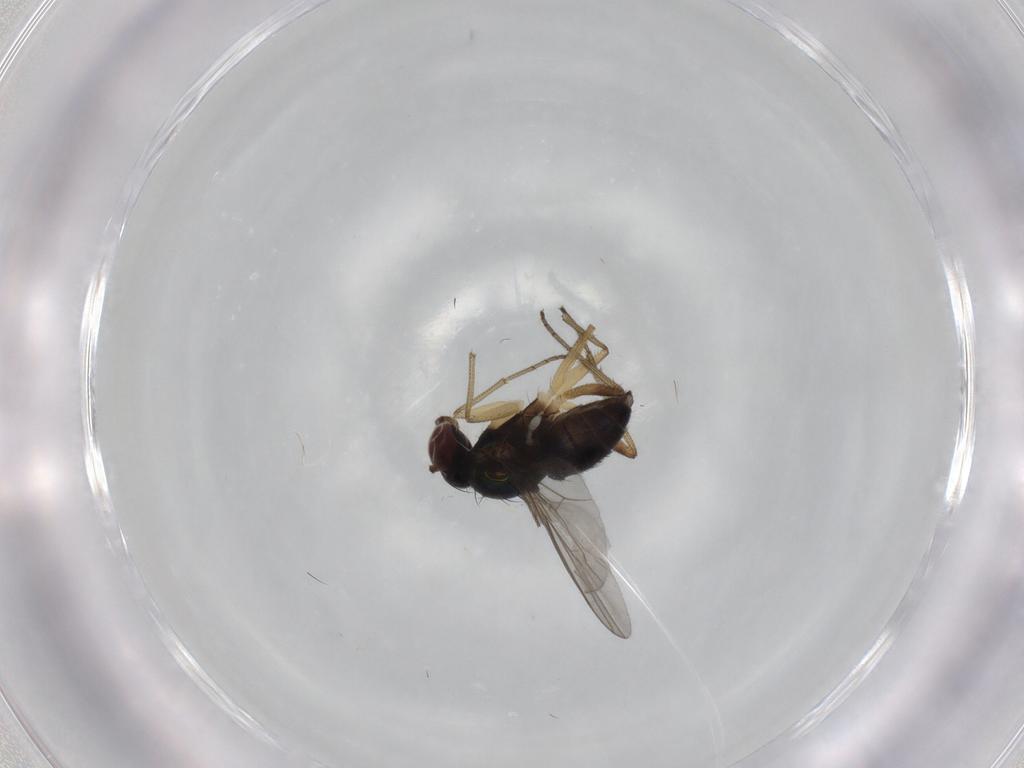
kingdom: Animalia
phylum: Arthropoda
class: Insecta
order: Diptera
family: Dolichopodidae
